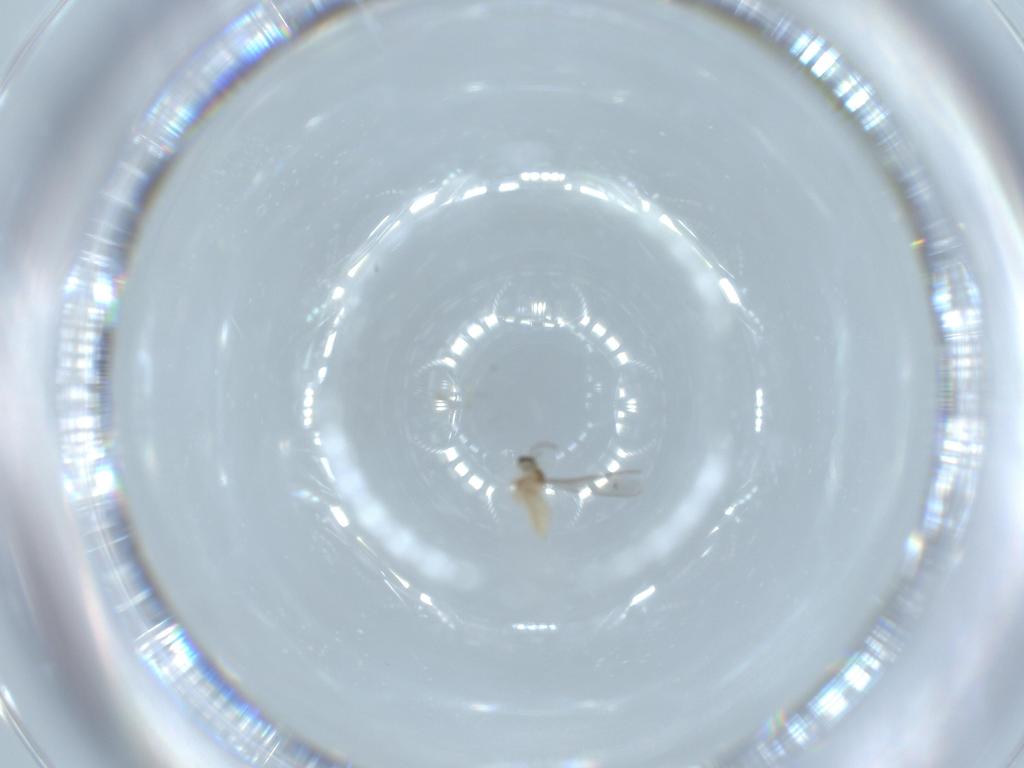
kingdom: Animalia
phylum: Arthropoda
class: Insecta
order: Diptera
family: Cecidomyiidae
